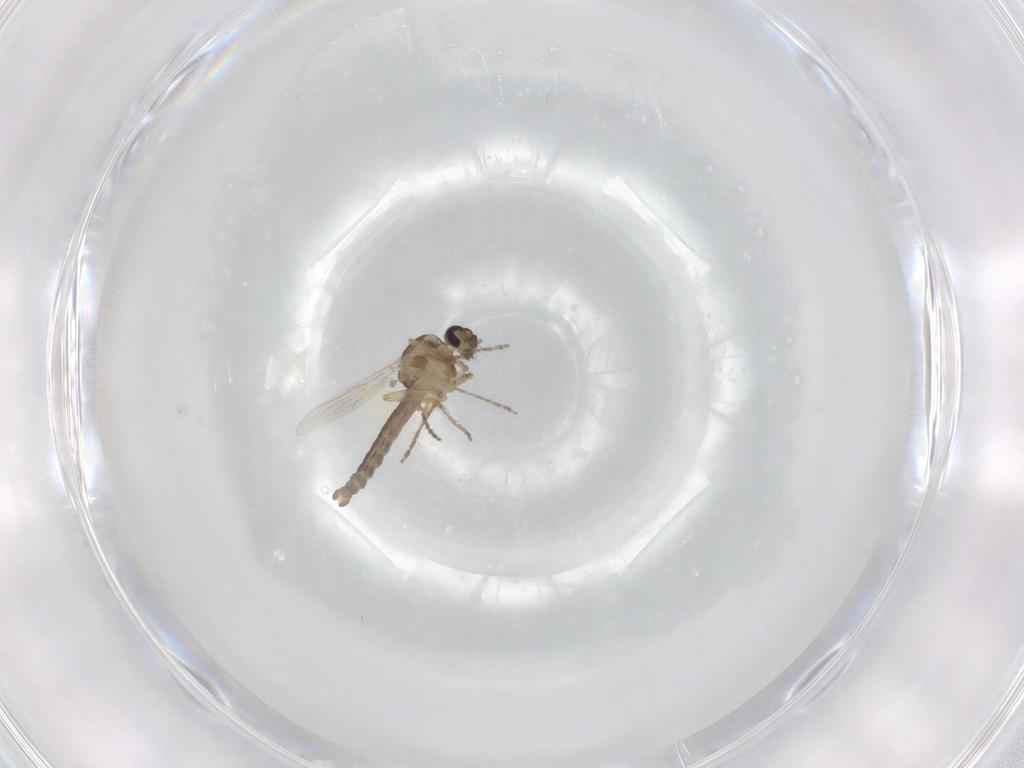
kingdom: Animalia
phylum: Arthropoda
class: Insecta
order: Diptera
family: Ceratopogonidae
